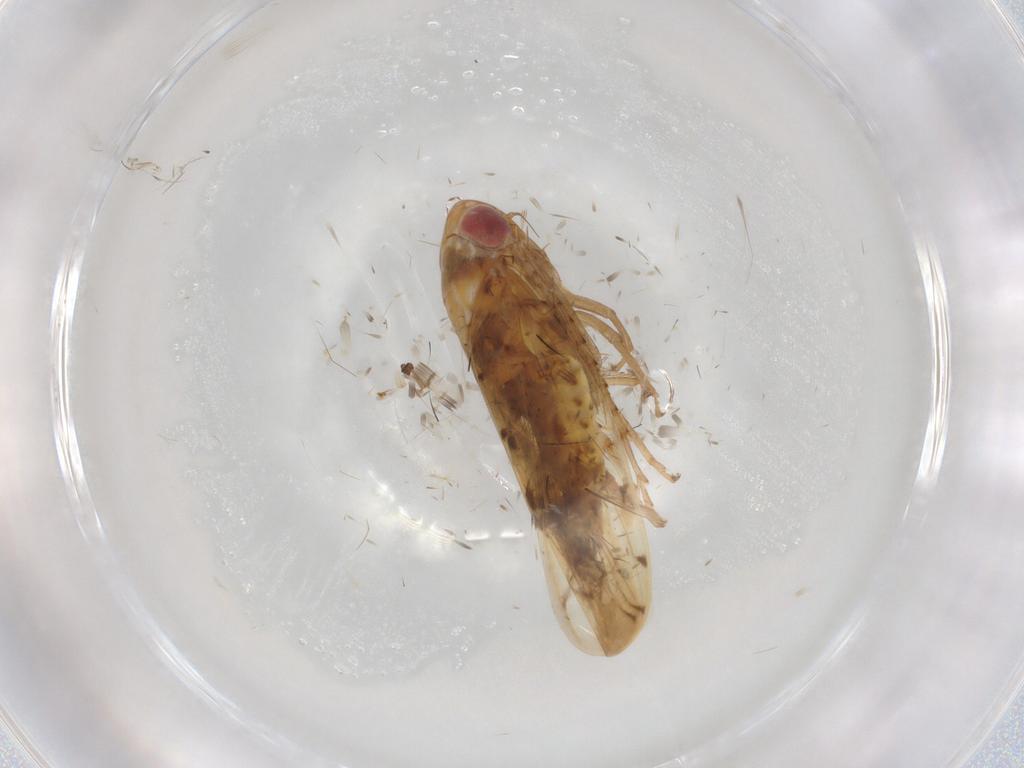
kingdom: Animalia
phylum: Arthropoda
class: Insecta
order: Hemiptera
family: Cicadellidae
